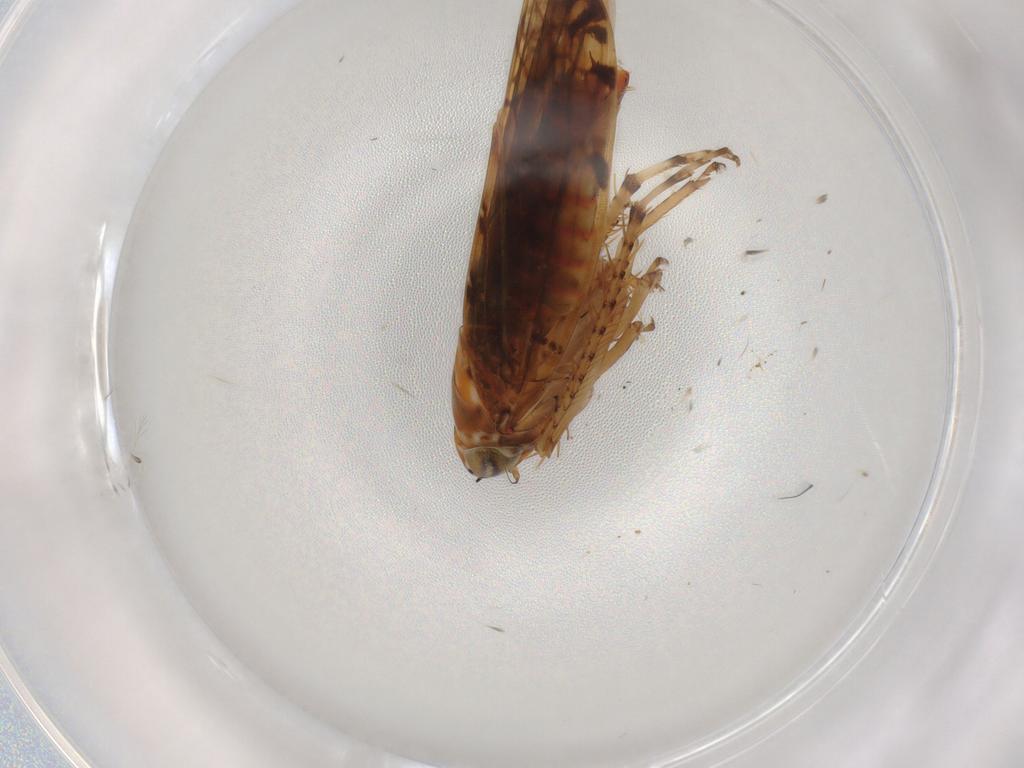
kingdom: Animalia
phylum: Arthropoda
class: Insecta
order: Hemiptera
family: Cicadellidae
